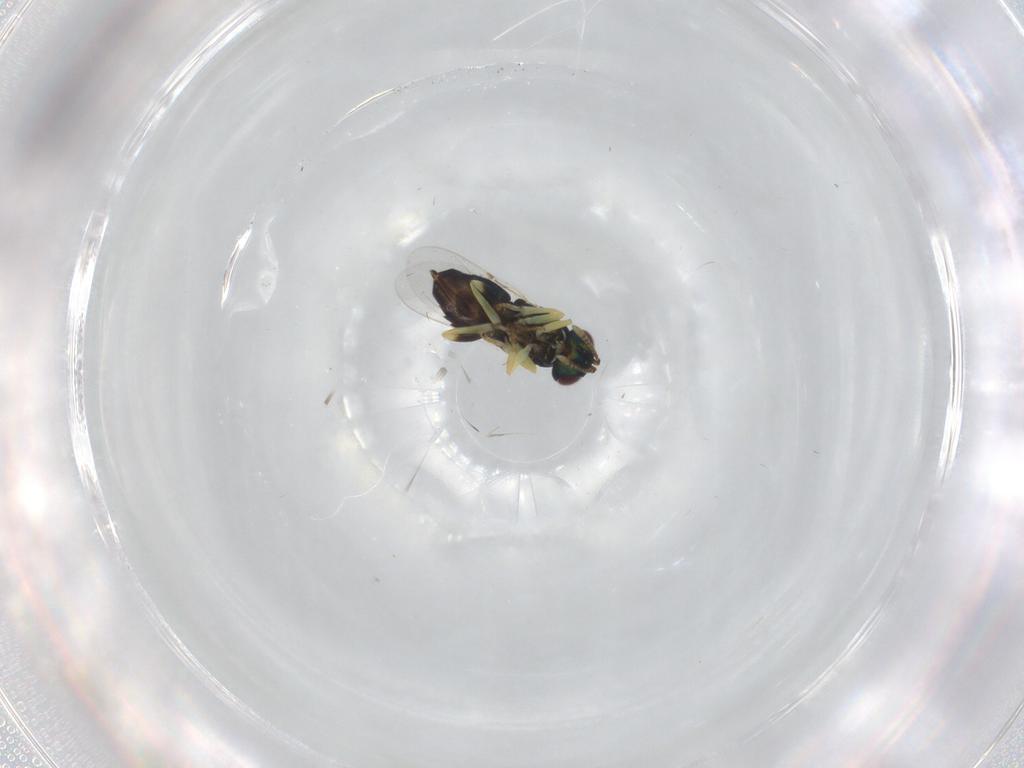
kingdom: Animalia
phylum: Arthropoda
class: Insecta
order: Hymenoptera
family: Encyrtidae
